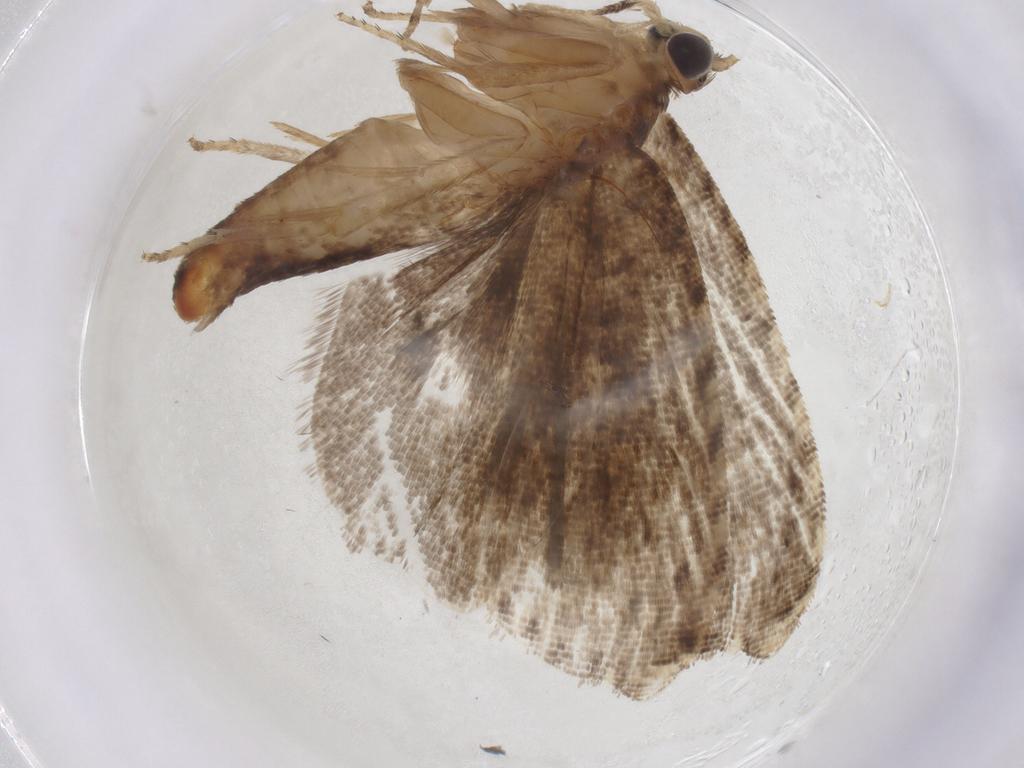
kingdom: Animalia
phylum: Arthropoda
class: Insecta
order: Lepidoptera
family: Tortricidae
